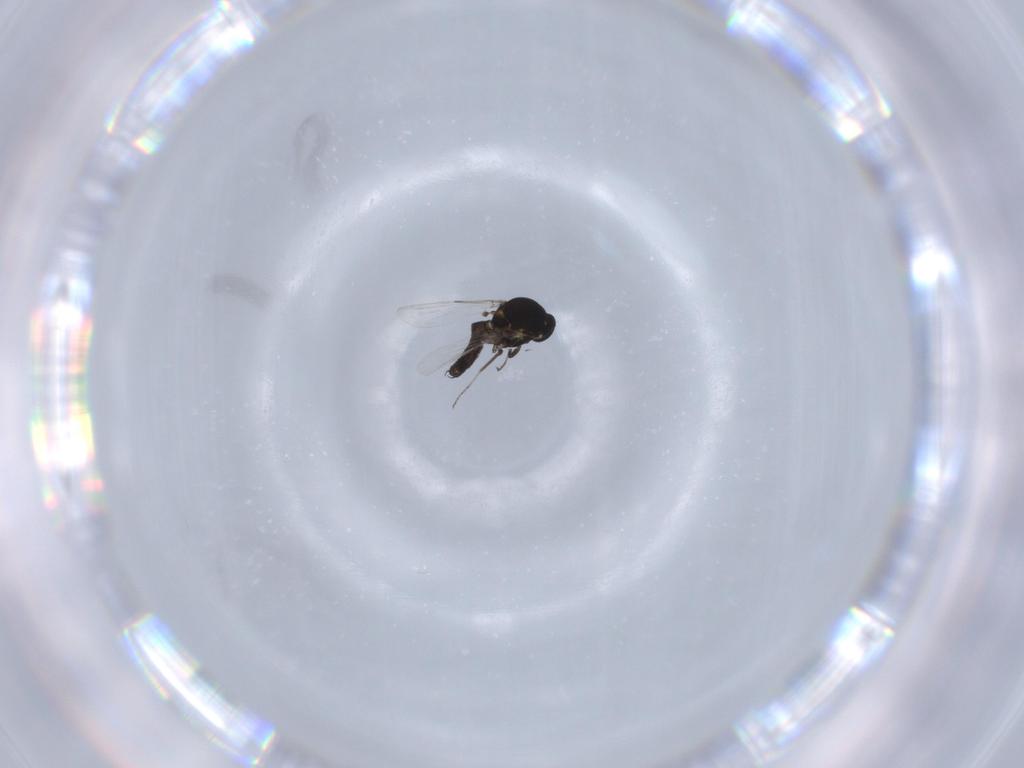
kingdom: Animalia
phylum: Arthropoda
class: Insecta
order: Diptera
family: Ceratopogonidae
